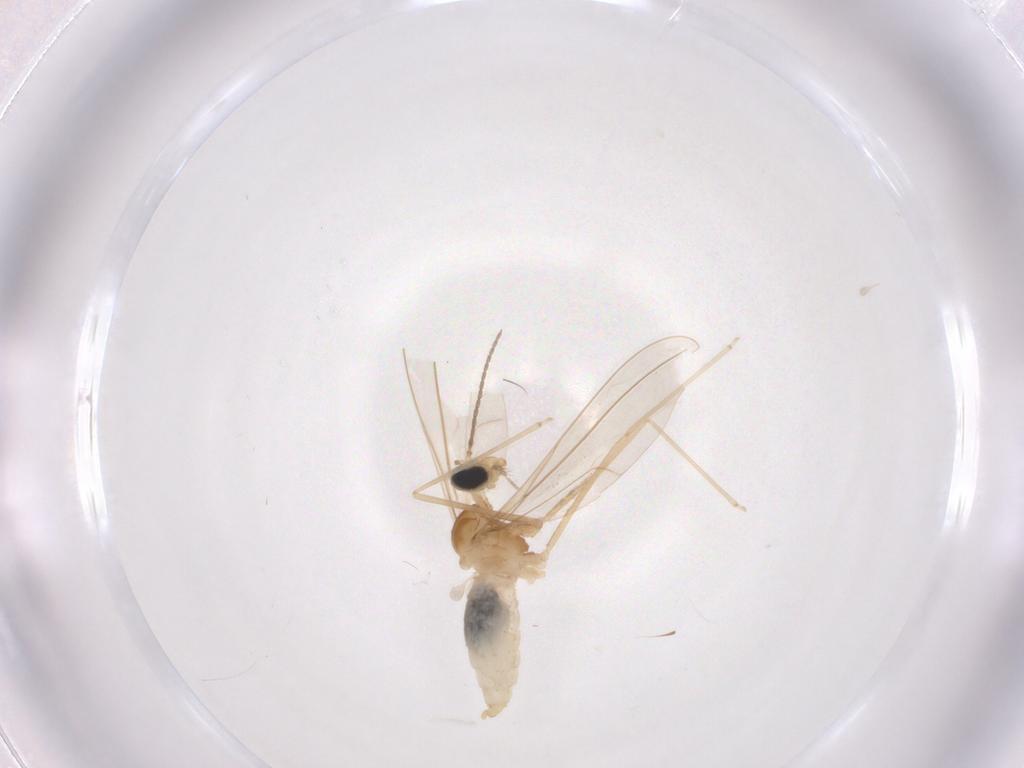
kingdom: Animalia
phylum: Arthropoda
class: Insecta
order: Diptera
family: Cecidomyiidae
